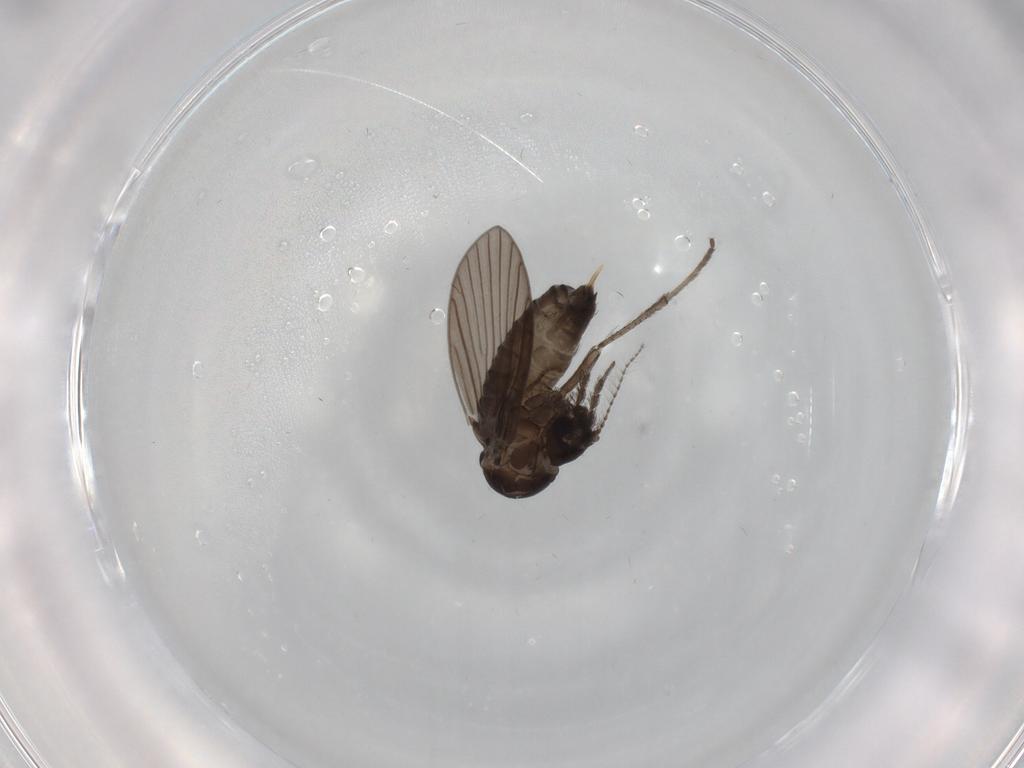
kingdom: Animalia
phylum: Arthropoda
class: Insecta
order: Diptera
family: Psychodidae
